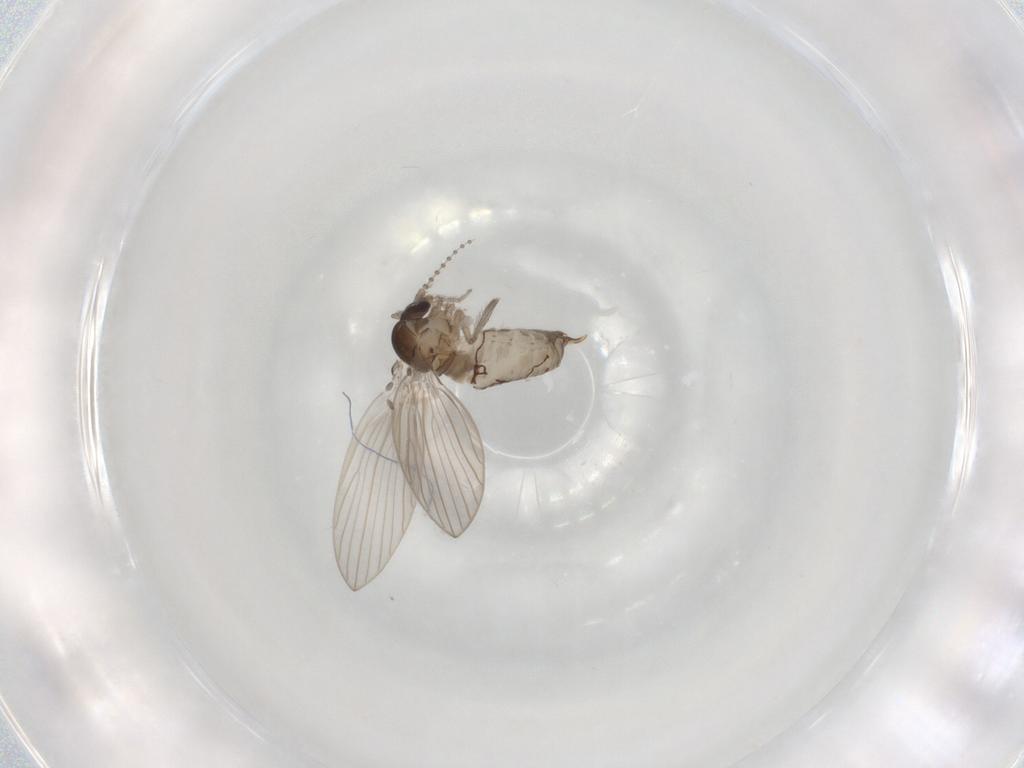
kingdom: Animalia
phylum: Arthropoda
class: Insecta
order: Diptera
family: Psychodidae
